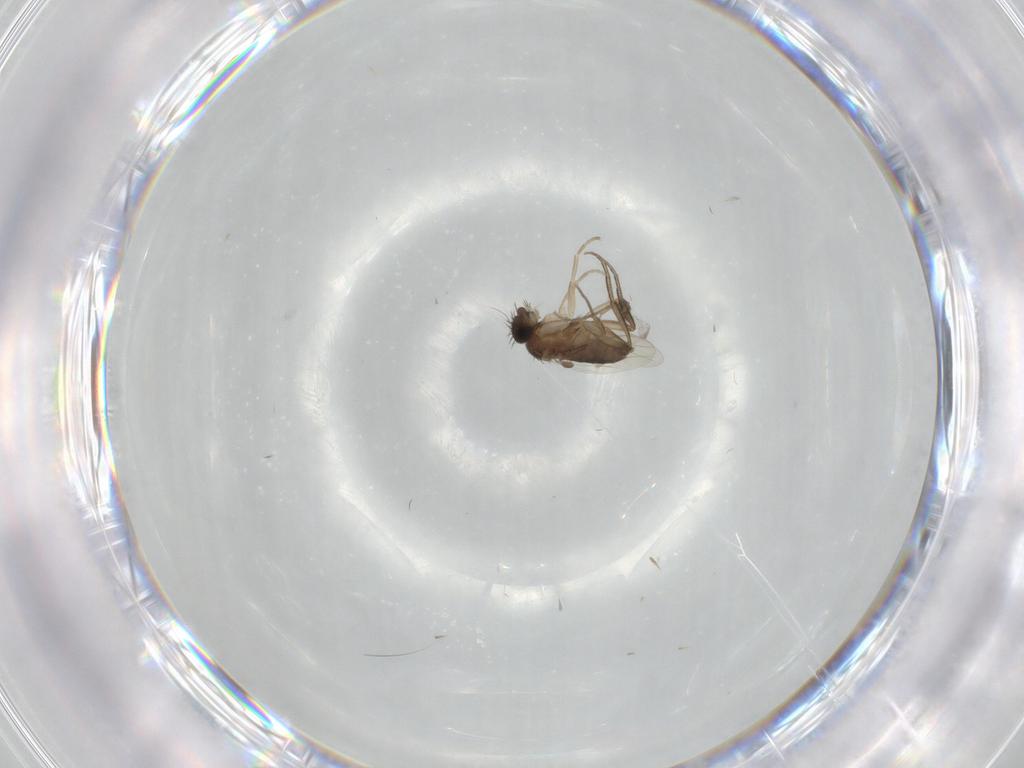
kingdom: Animalia
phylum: Arthropoda
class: Insecta
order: Diptera
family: Phoridae
